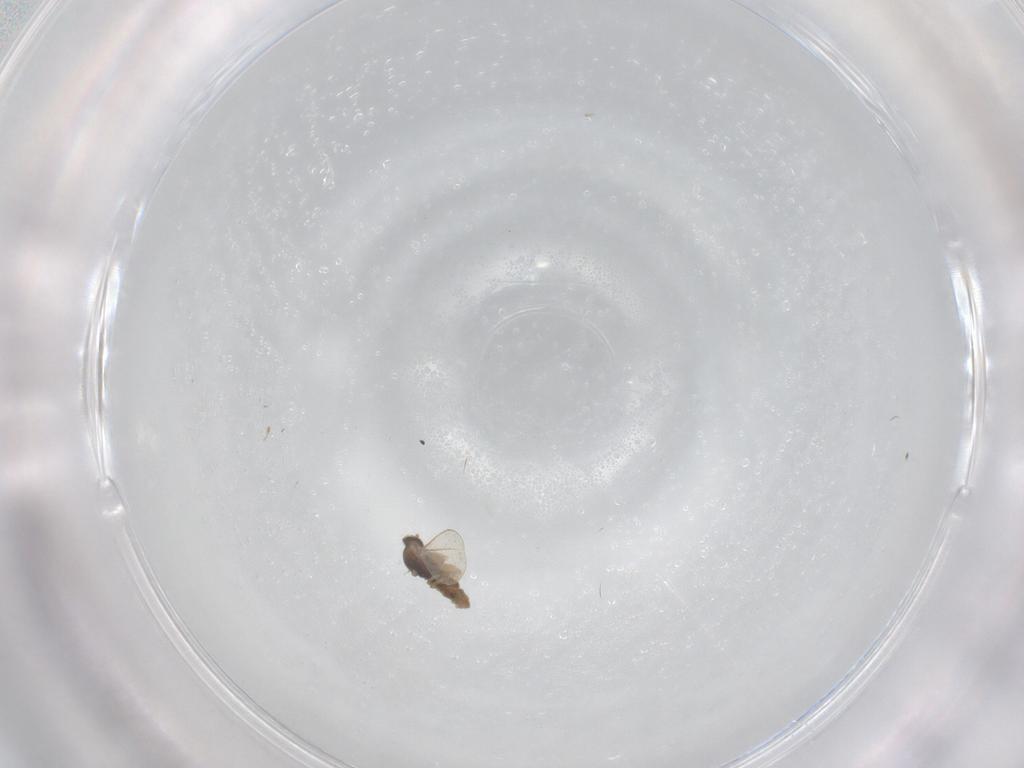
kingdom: Animalia
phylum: Arthropoda
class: Insecta
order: Diptera
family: Cecidomyiidae
